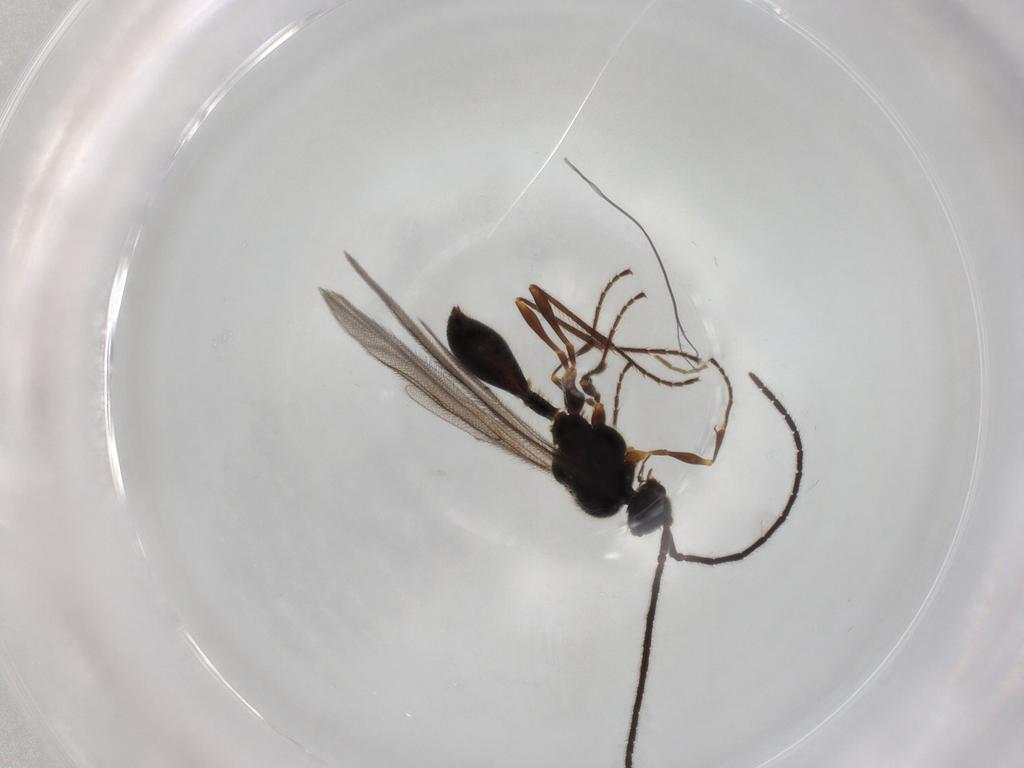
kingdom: Animalia
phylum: Arthropoda
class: Insecta
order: Hymenoptera
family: Diapriidae
